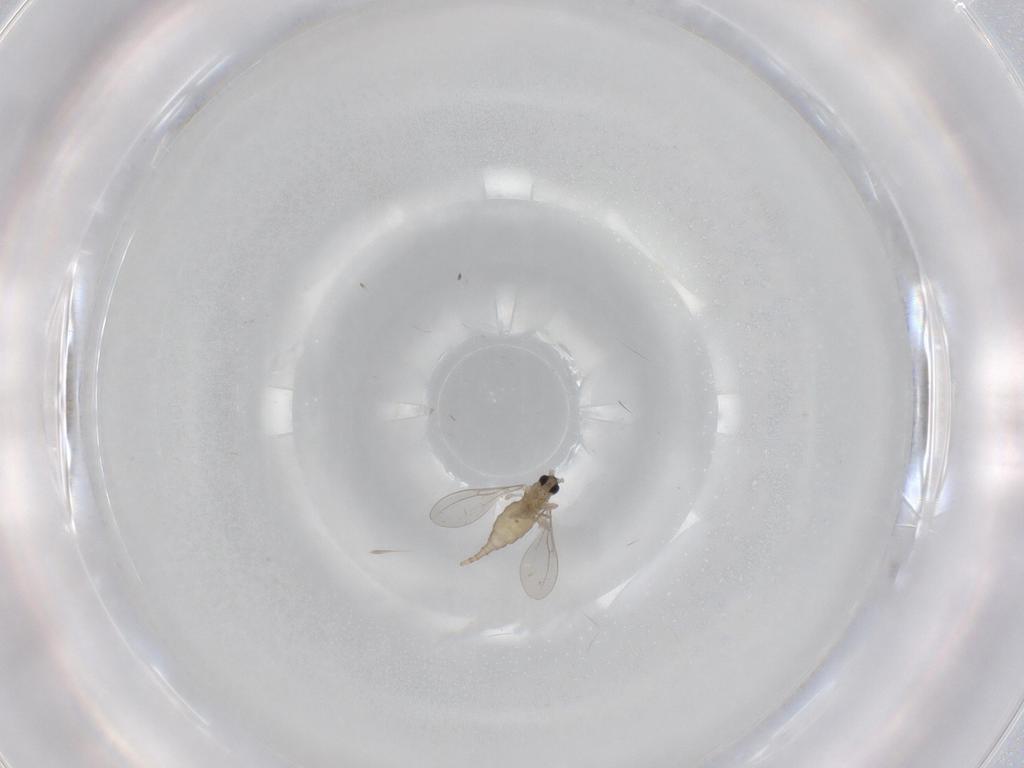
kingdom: Animalia
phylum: Arthropoda
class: Insecta
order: Diptera
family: Cecidomyiidae
